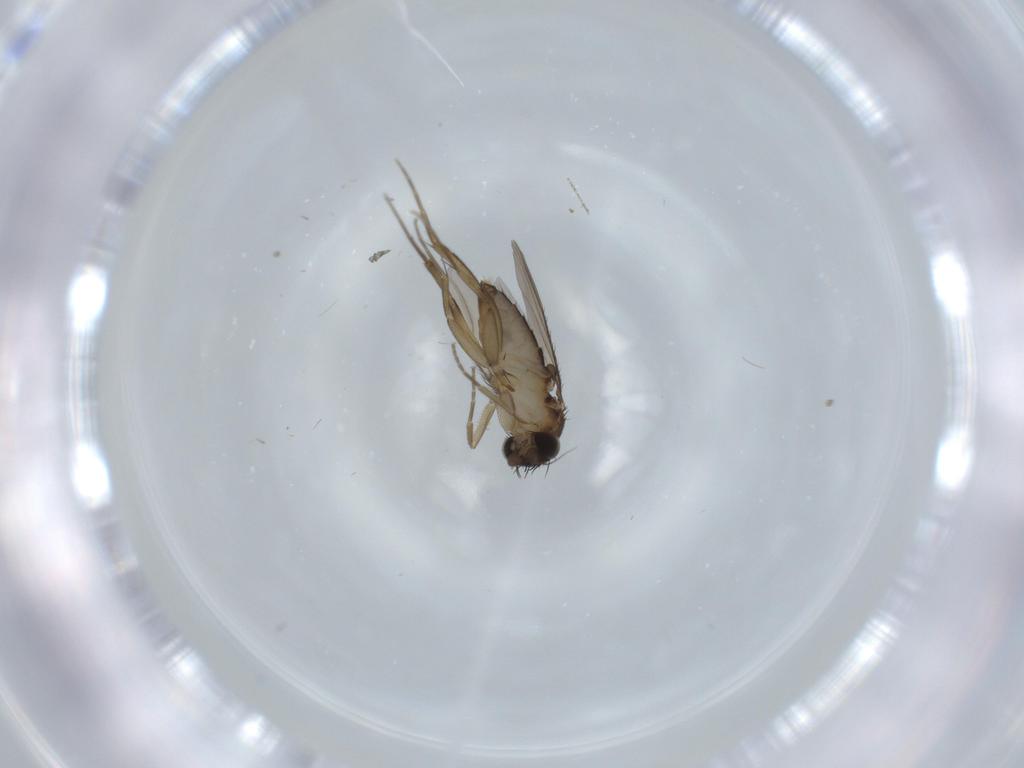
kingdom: Animalia
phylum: Arthropoda
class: Insecta
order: Diptera
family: Phoridae
